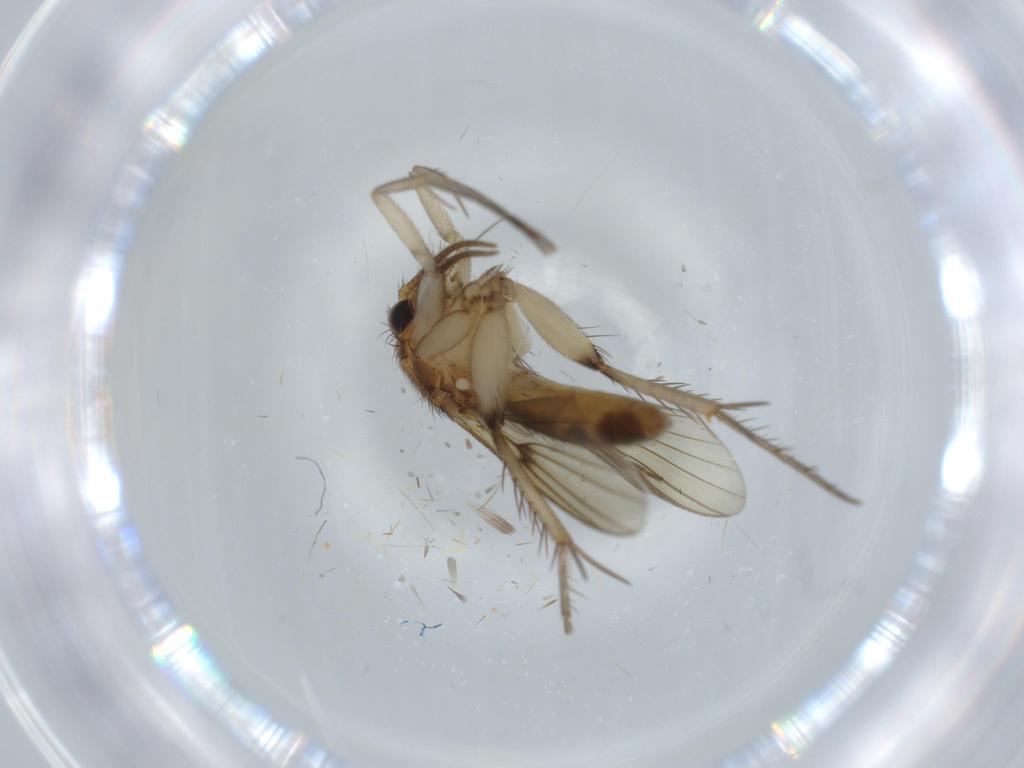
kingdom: Animalia
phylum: Arthropoda
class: Insecta
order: Diptera
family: Mycetophilidae
